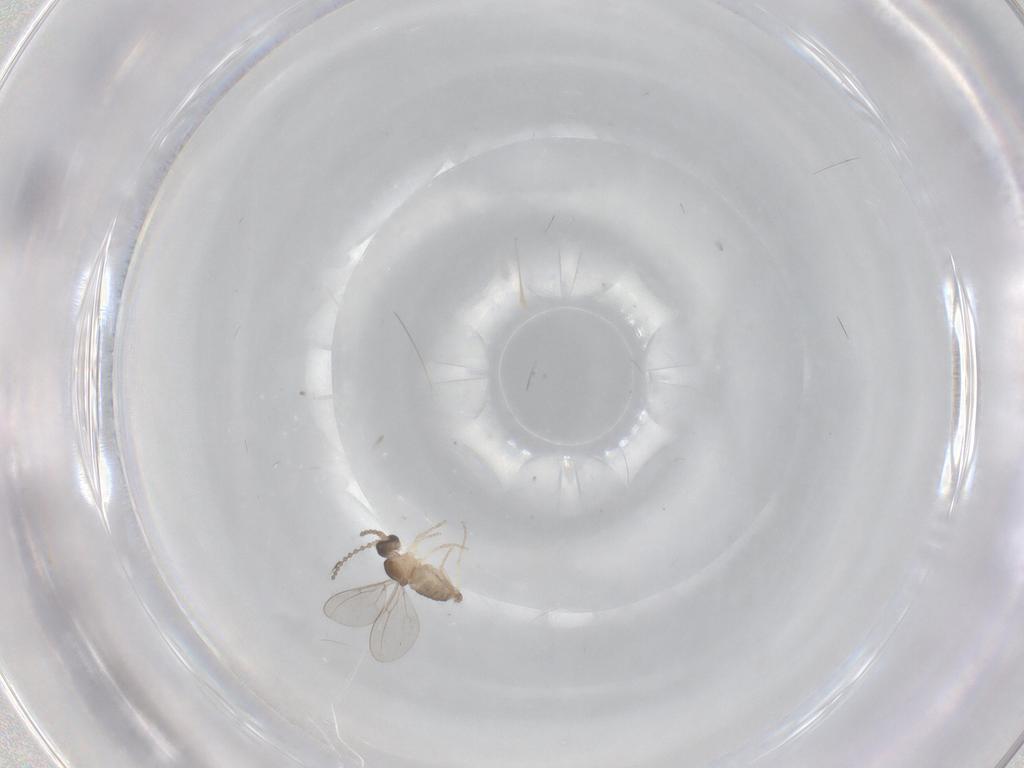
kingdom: Animalia
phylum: Arthropoda
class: Insecta
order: Diptera
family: Cecidomyiidae
